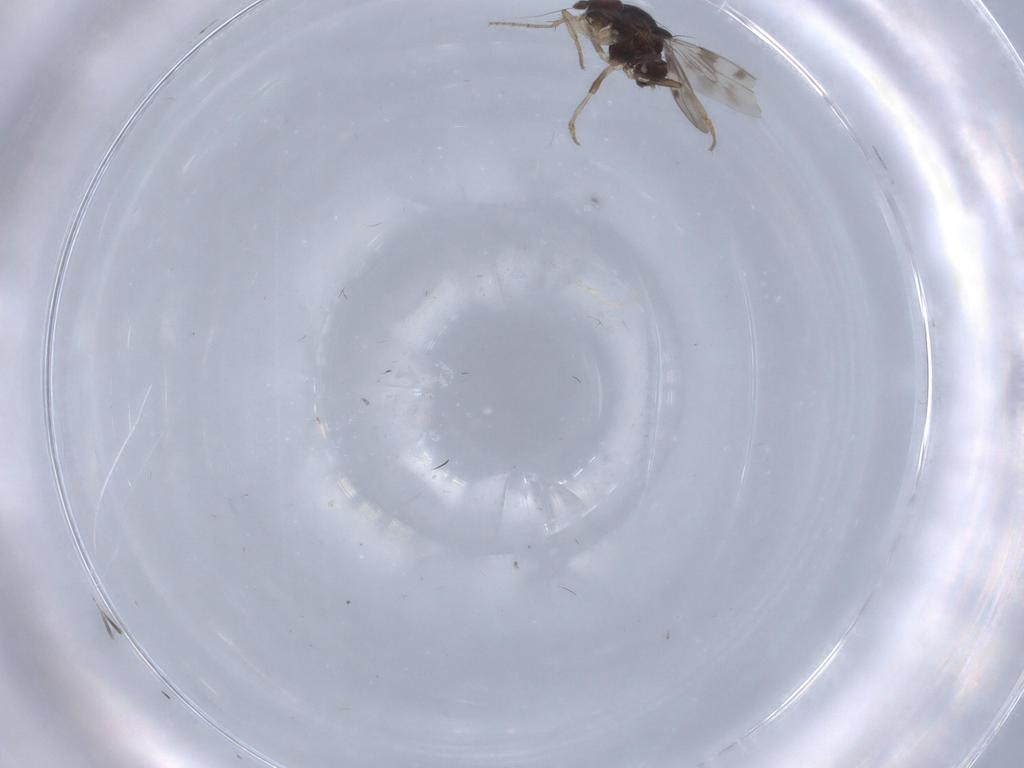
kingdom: Animalia
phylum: Arthropoda
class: Insecta
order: Diptera
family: Sphaeroceridae
